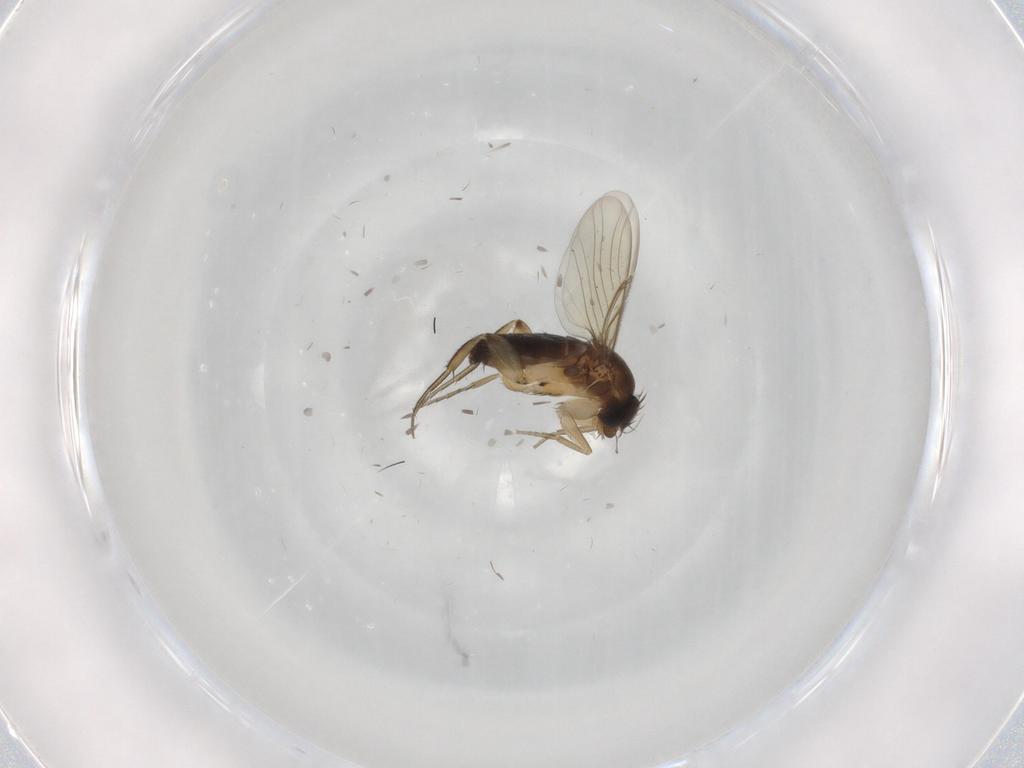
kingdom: Animalia
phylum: Arthropoda
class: Insecta
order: Diptera
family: Phoridae
